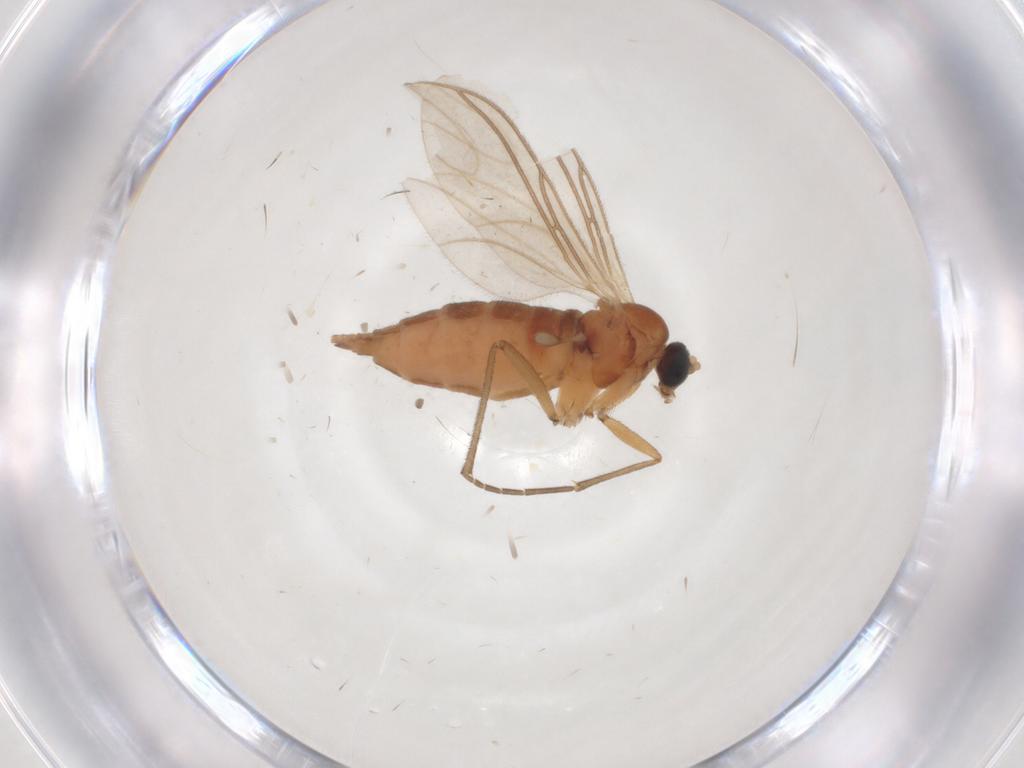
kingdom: Animalia
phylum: Arthropoda
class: Insecta
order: Diptera
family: Sciaridae
